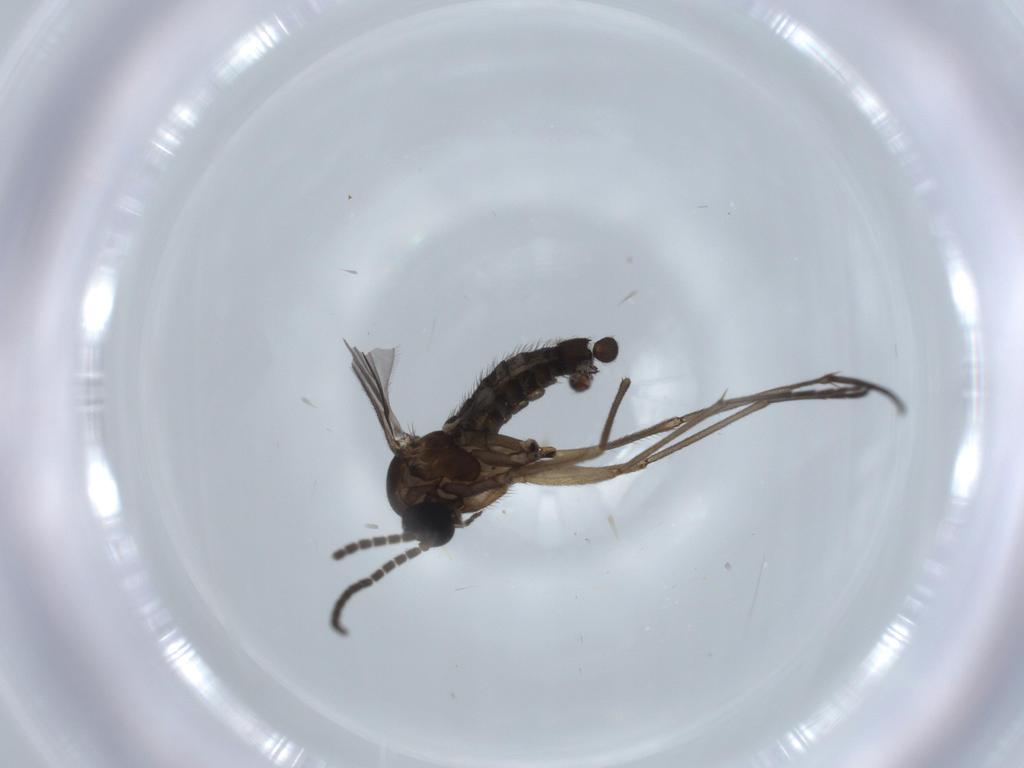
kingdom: Animalia
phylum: Arthropoda
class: Insecta
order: Diptera
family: Sciaridae
